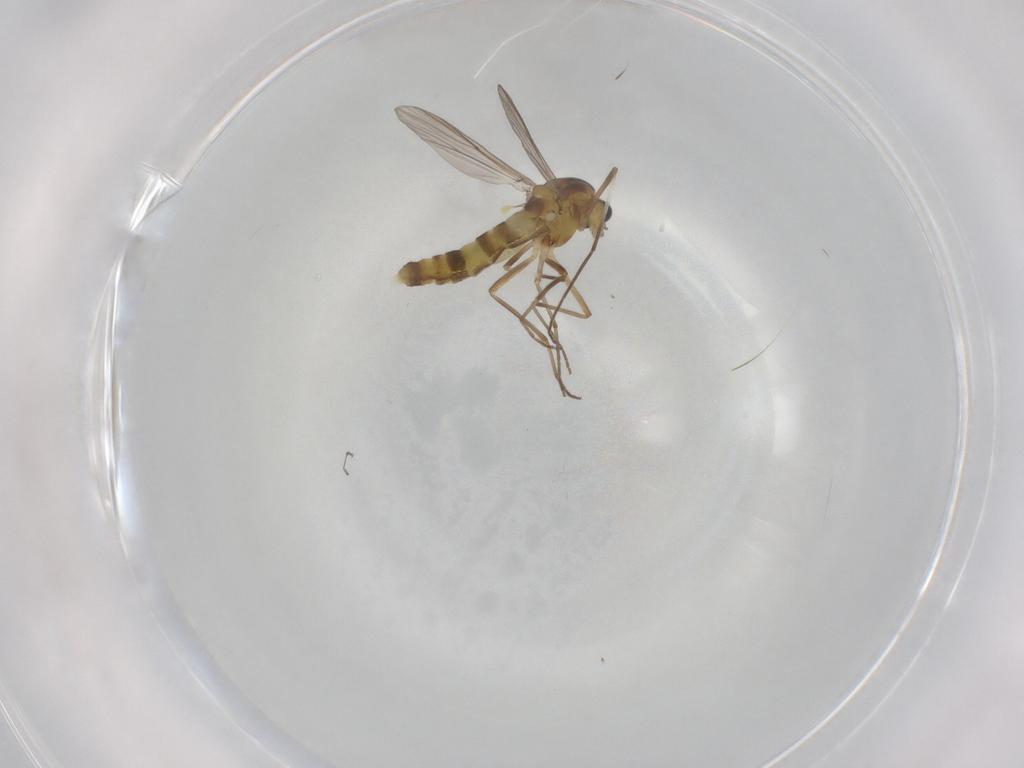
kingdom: Animalia
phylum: Arthropoda
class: Insecta
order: Diptera
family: Chironomidae
